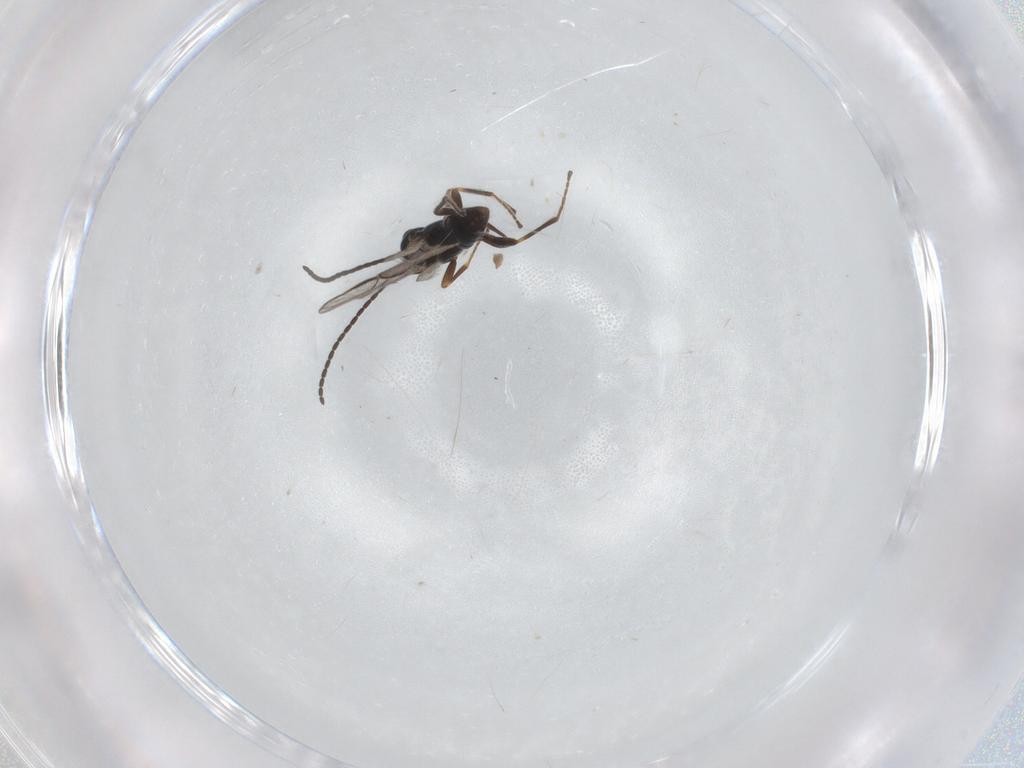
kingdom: Animalia
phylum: Arthropoda
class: Insecta
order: Hymenoptera
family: Braconidae
